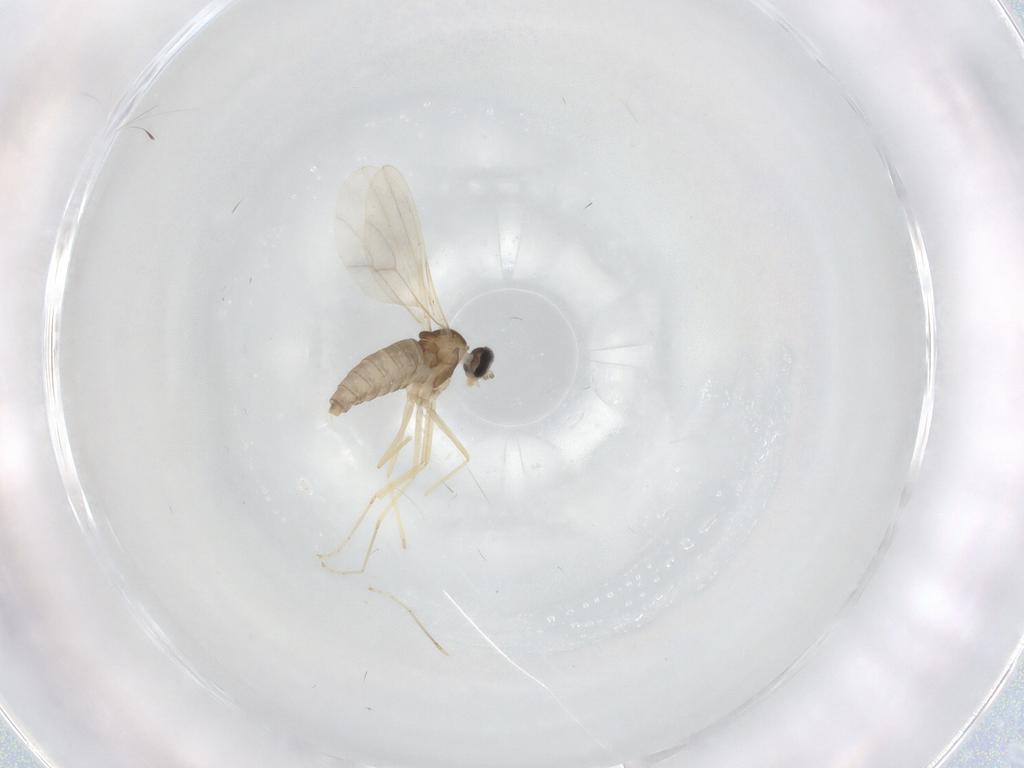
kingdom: Animalia
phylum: Arthropoda
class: Insecta
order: Diptera
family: Cecidomyiidae
